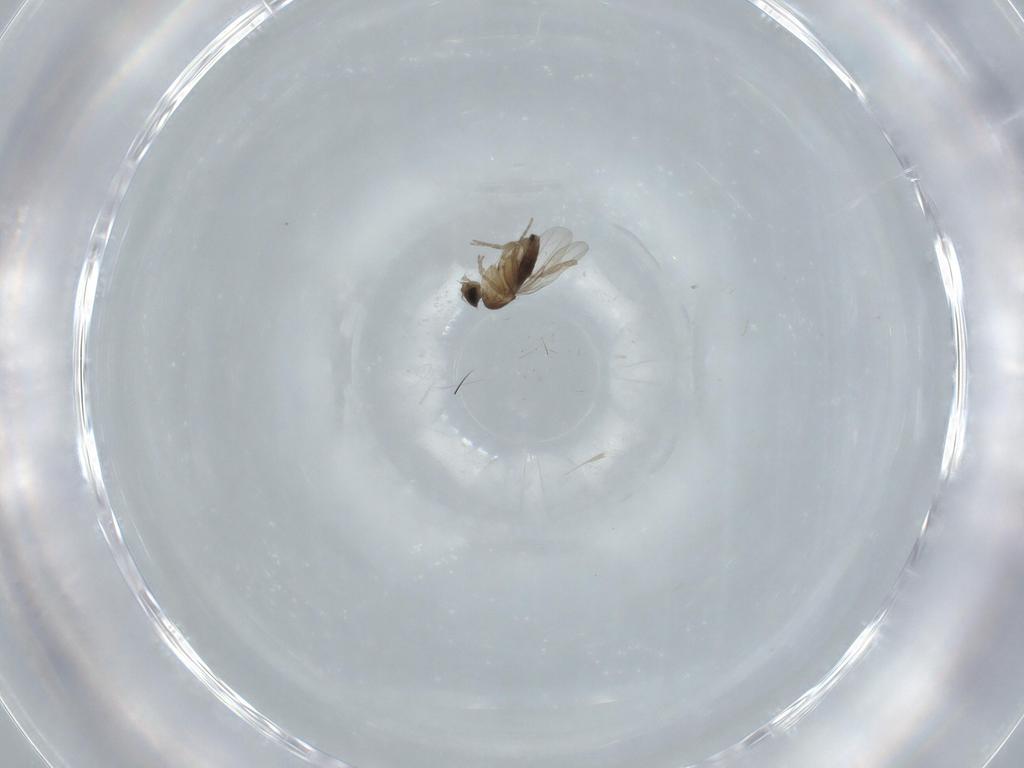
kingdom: Animalia
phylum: Arthropoda
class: Insecta
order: Diptera
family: Phoridae
